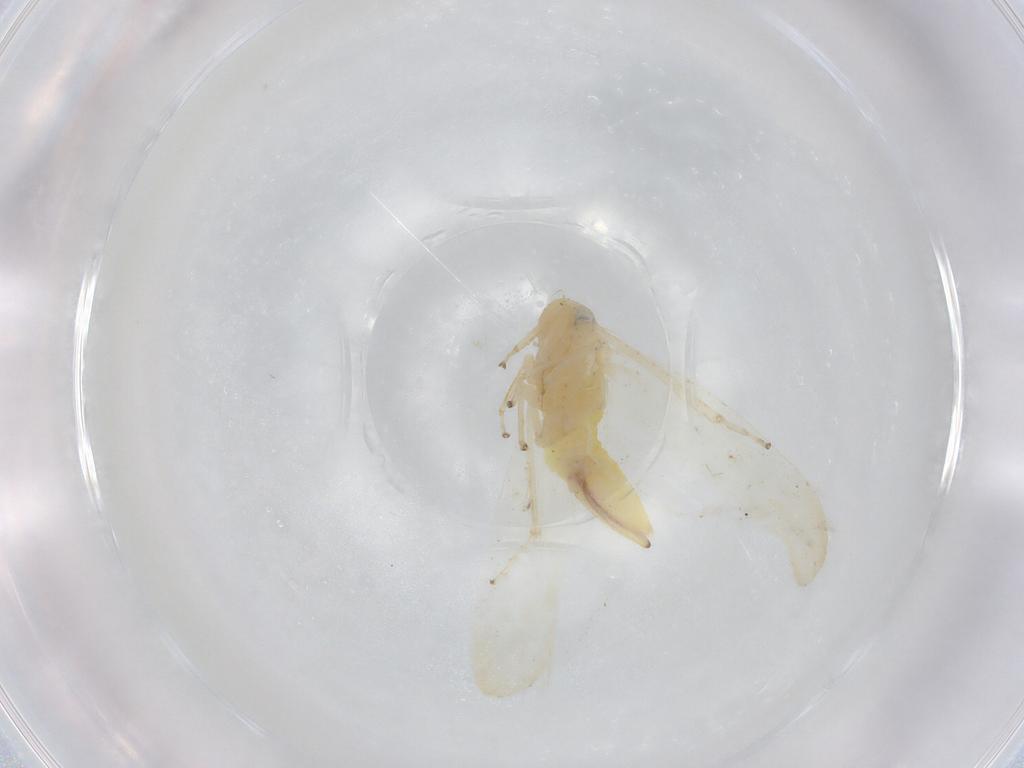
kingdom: Animalia
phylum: Arthropoda
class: Insecta
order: Hemiptera
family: Cicadellidae
